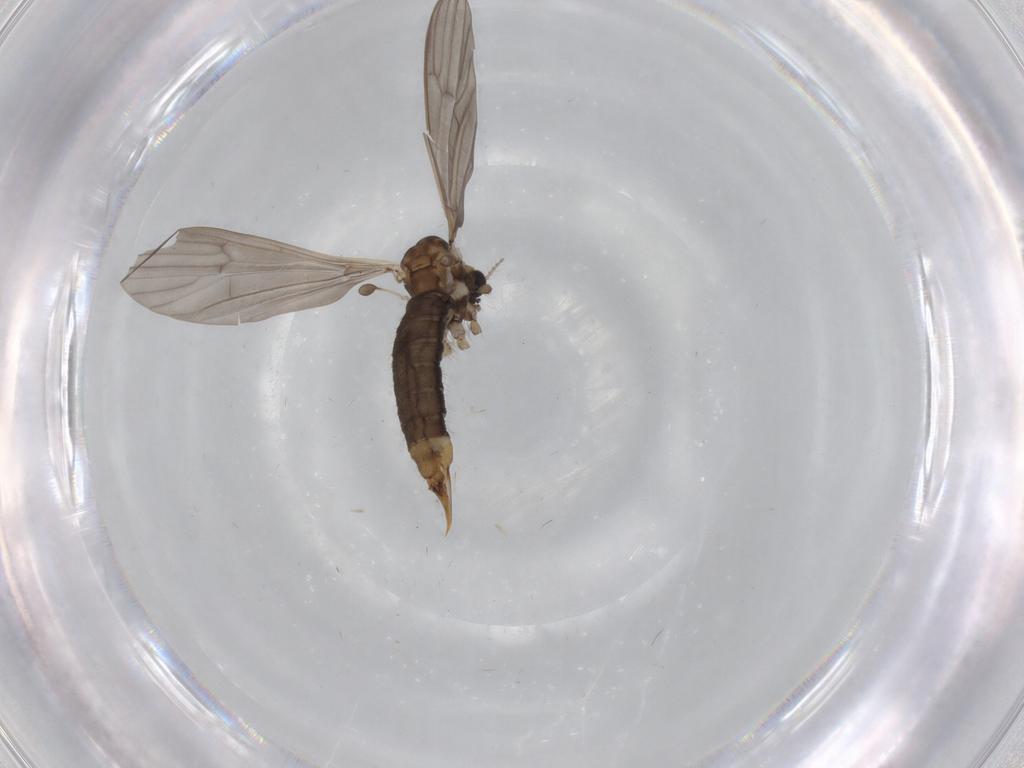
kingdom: Animalia
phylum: Arthropoda
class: Insecta
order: Diptera
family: Limoniidae
